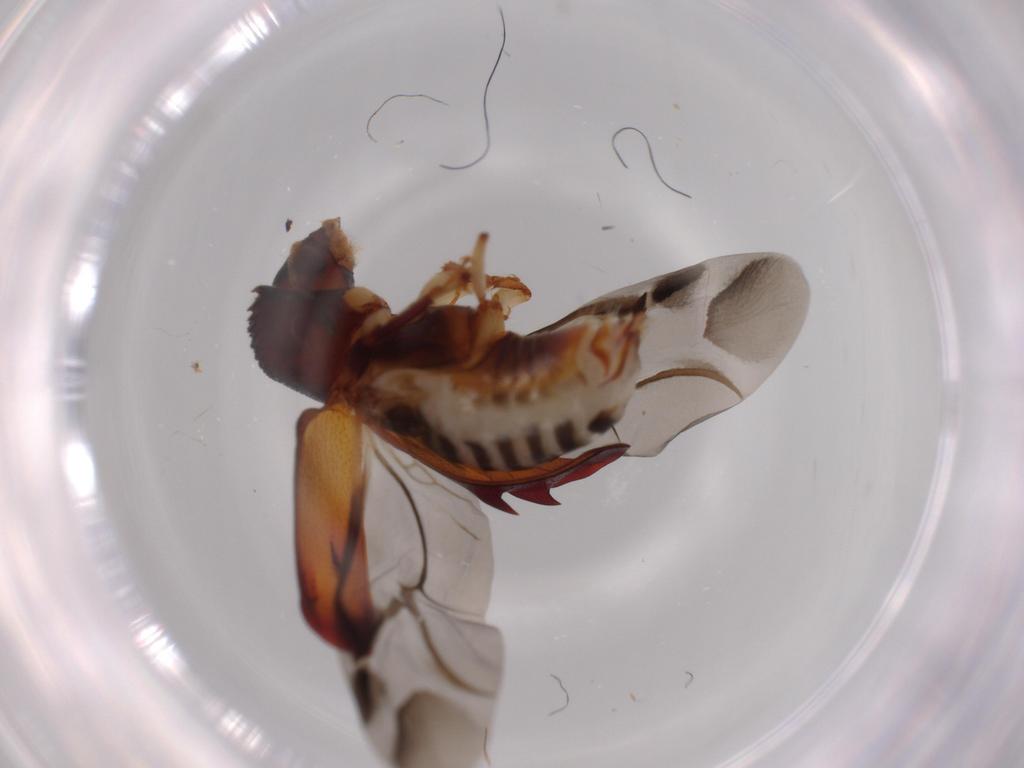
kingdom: Animalia
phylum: Arthropoda
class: Insecta
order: Coleoptera
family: Bostrichidae
